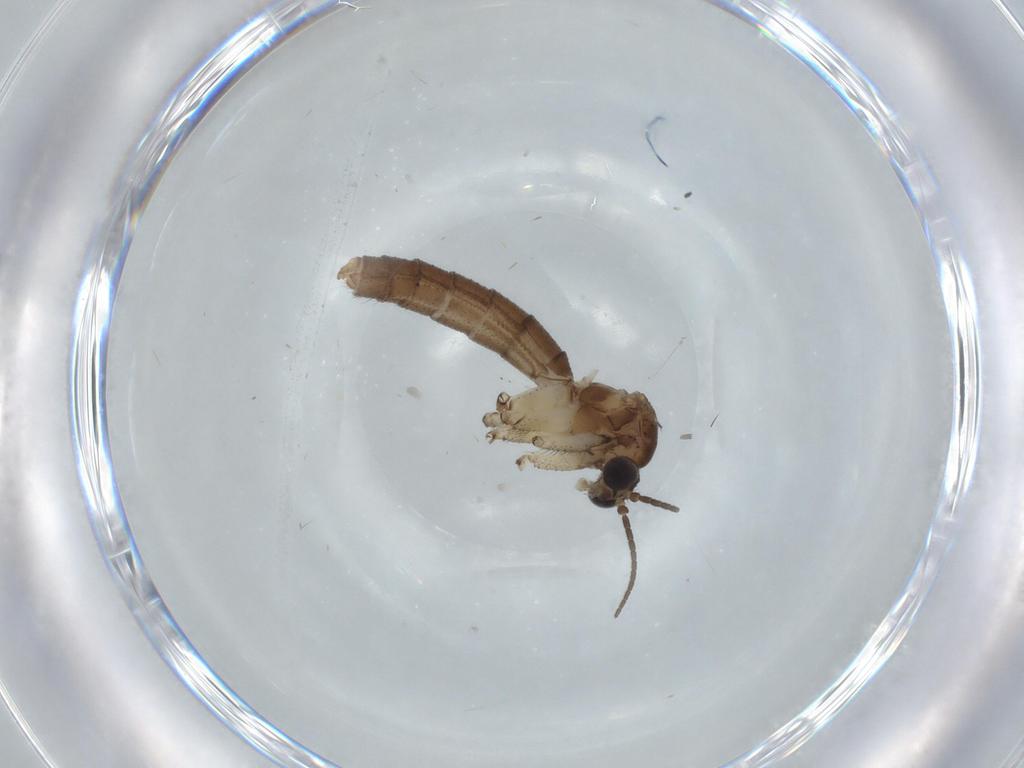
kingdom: Animalia
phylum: Arthropoda
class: Insecta
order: Diptera
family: Mycetophilidae
